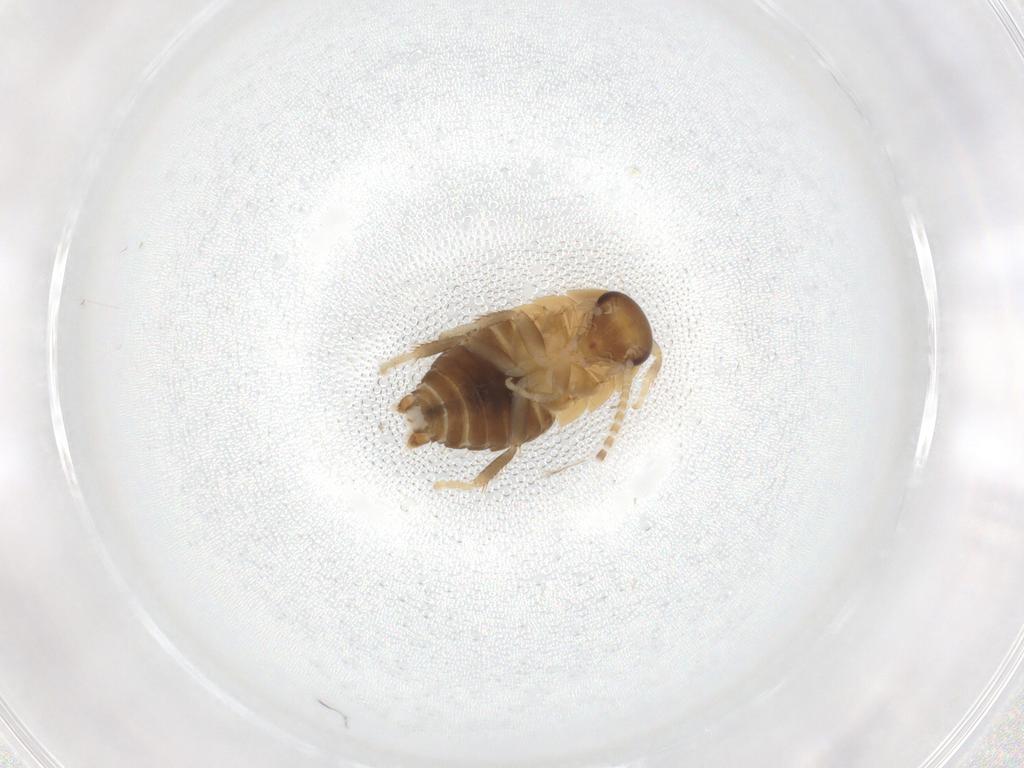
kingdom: Animalia
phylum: Arthropoda
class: Insecta
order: Blattodea
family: Ectobiidae
